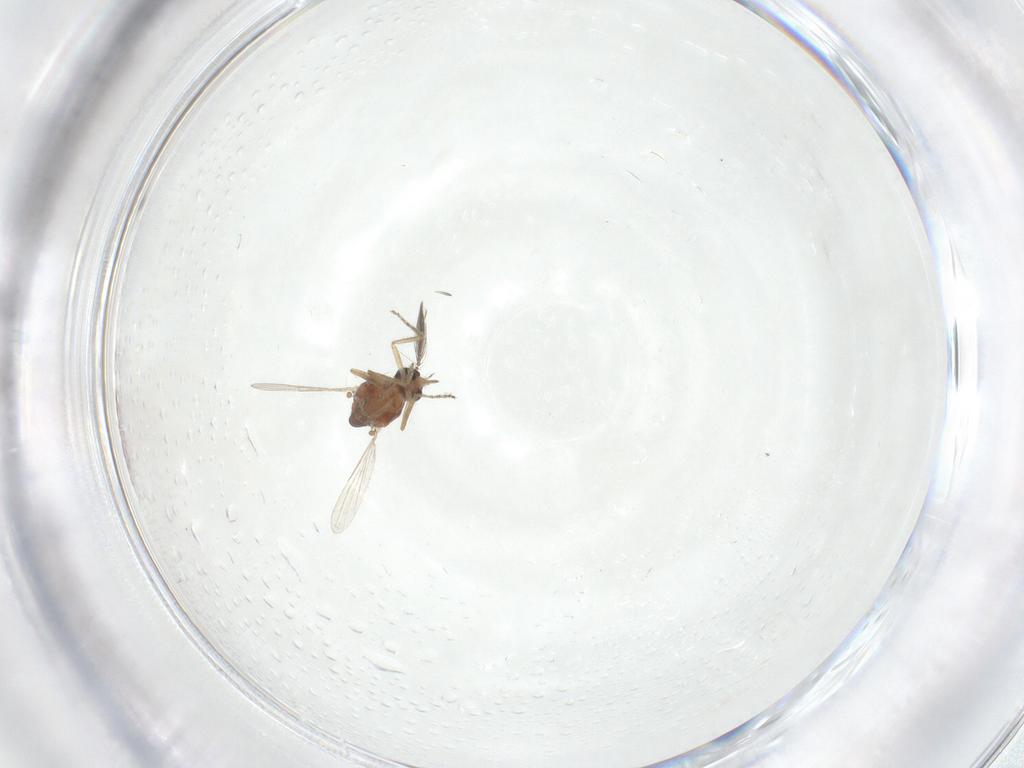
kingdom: Animalia
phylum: Arthropoda
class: Insecta
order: Diptera
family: Ceratopogonidae
